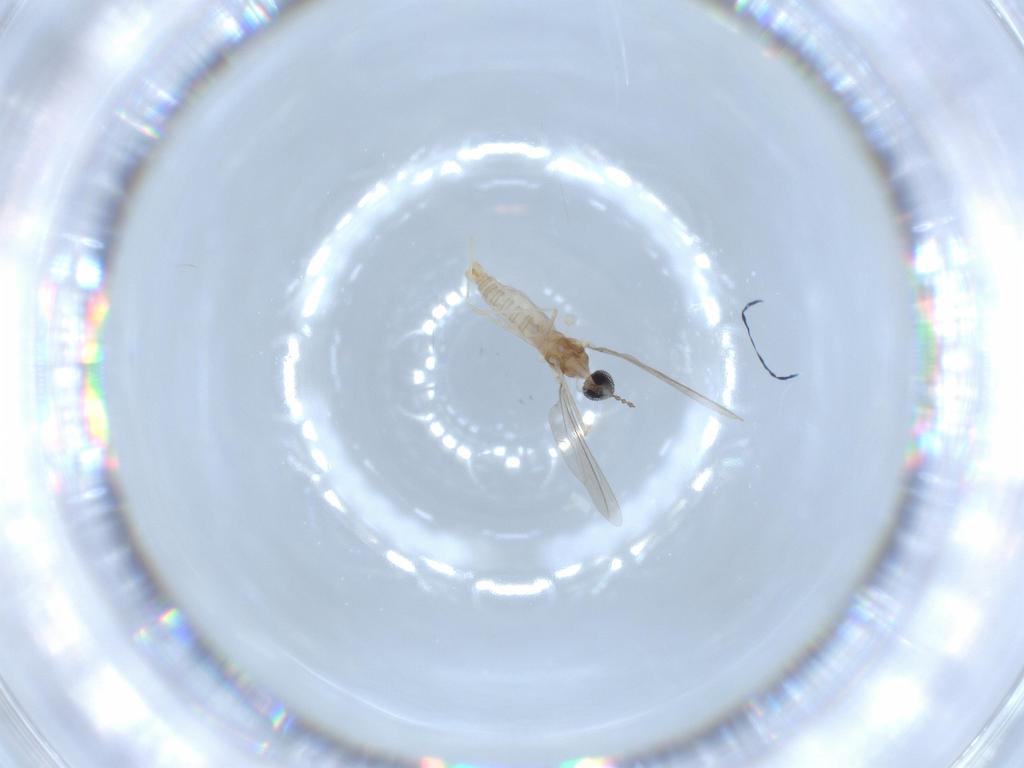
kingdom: Animalia
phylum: Arthropoda
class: Insecta
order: Diptera
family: Cecidomyiidae
